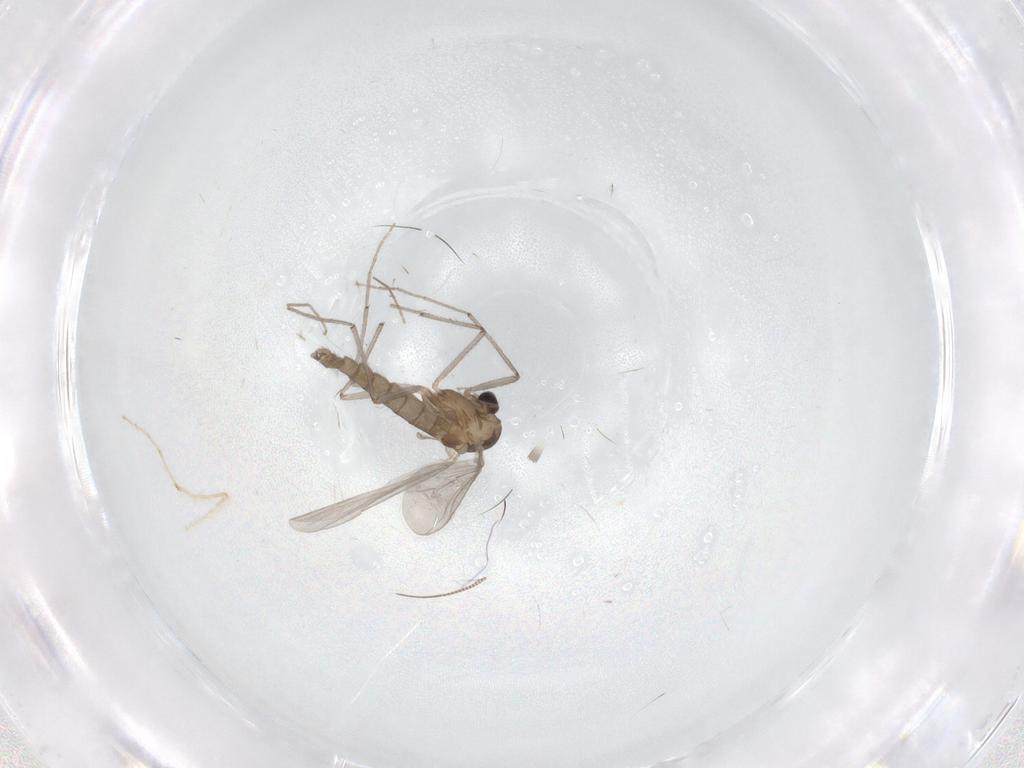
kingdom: Animalia
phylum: Arthropoda
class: Insecta
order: Diptera
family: Chironomidae
